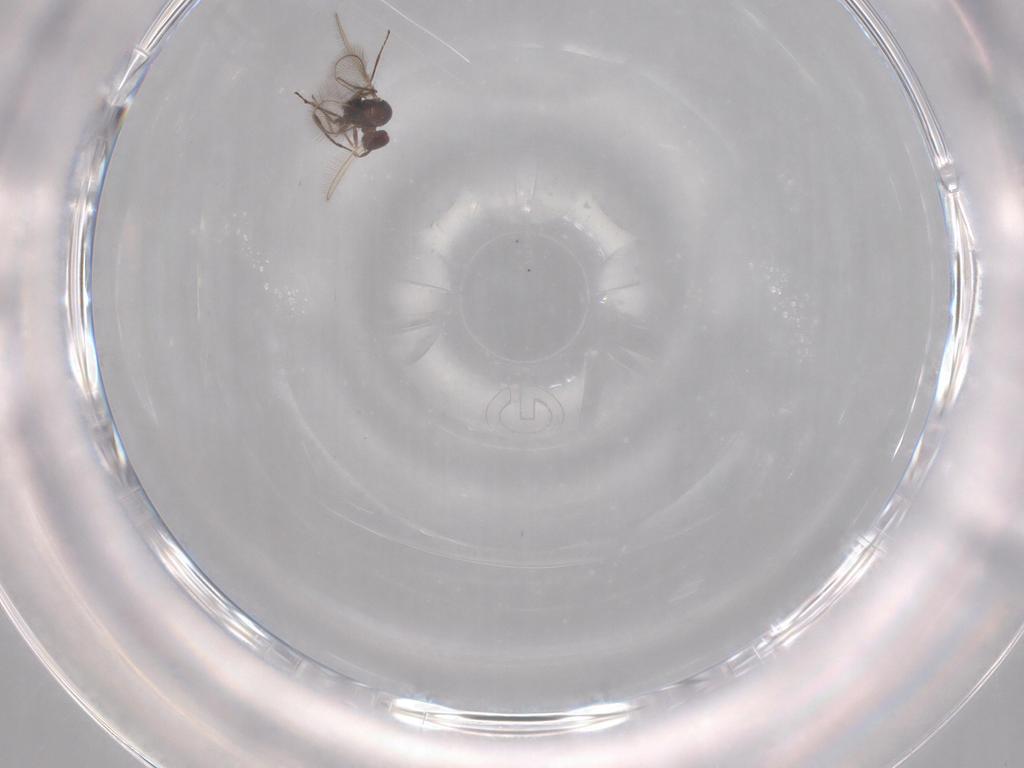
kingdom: Animalia
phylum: Arthropoda
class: Insecta
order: Hymenoptera
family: Mymaridae
